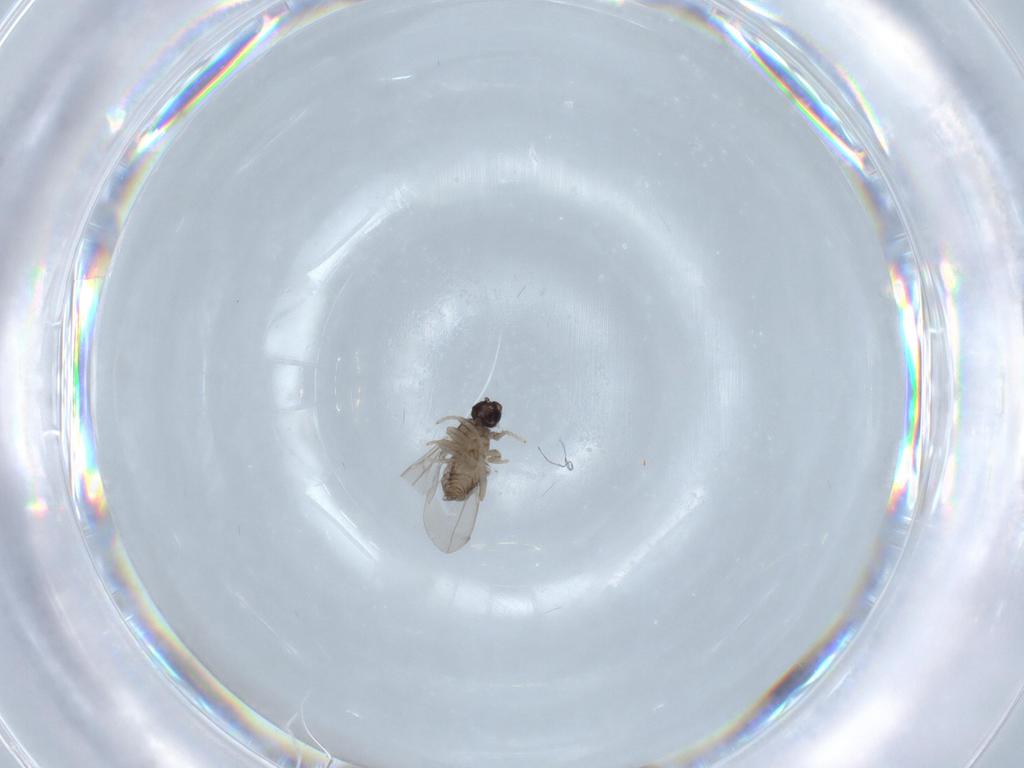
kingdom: Animalia
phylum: Arthropoda
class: Insecta
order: Diptera
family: Cecidomyiidae
